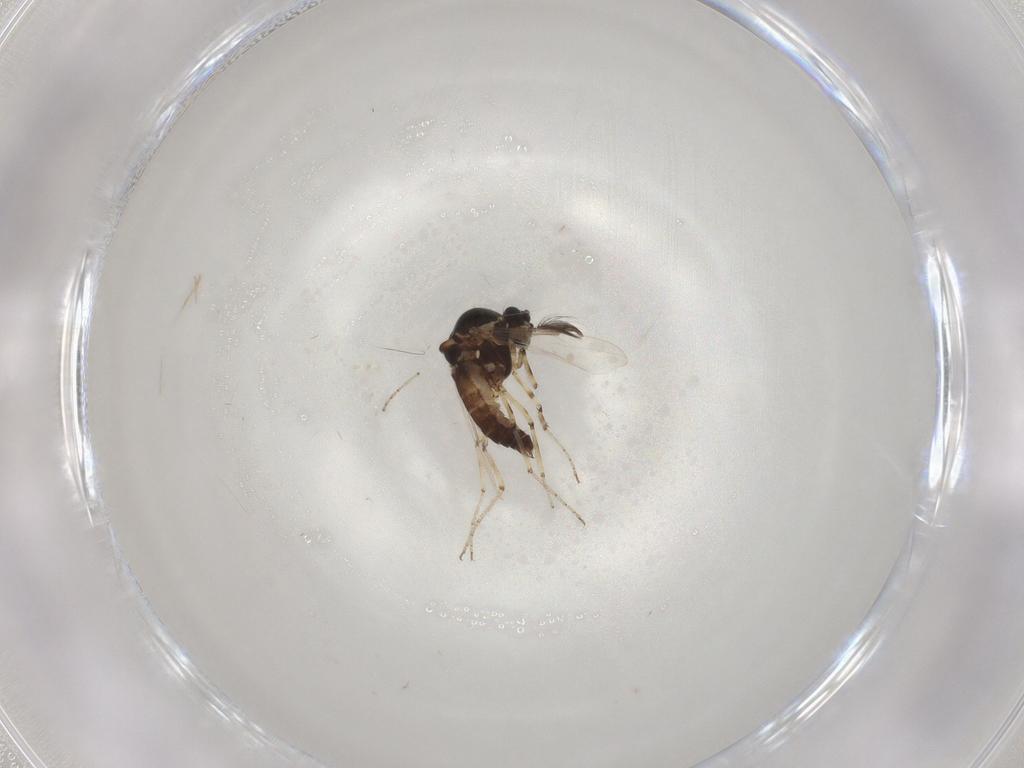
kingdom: Animalia
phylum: Arthropoda
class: Insecta
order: Diptera
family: Ceratopogonidae
